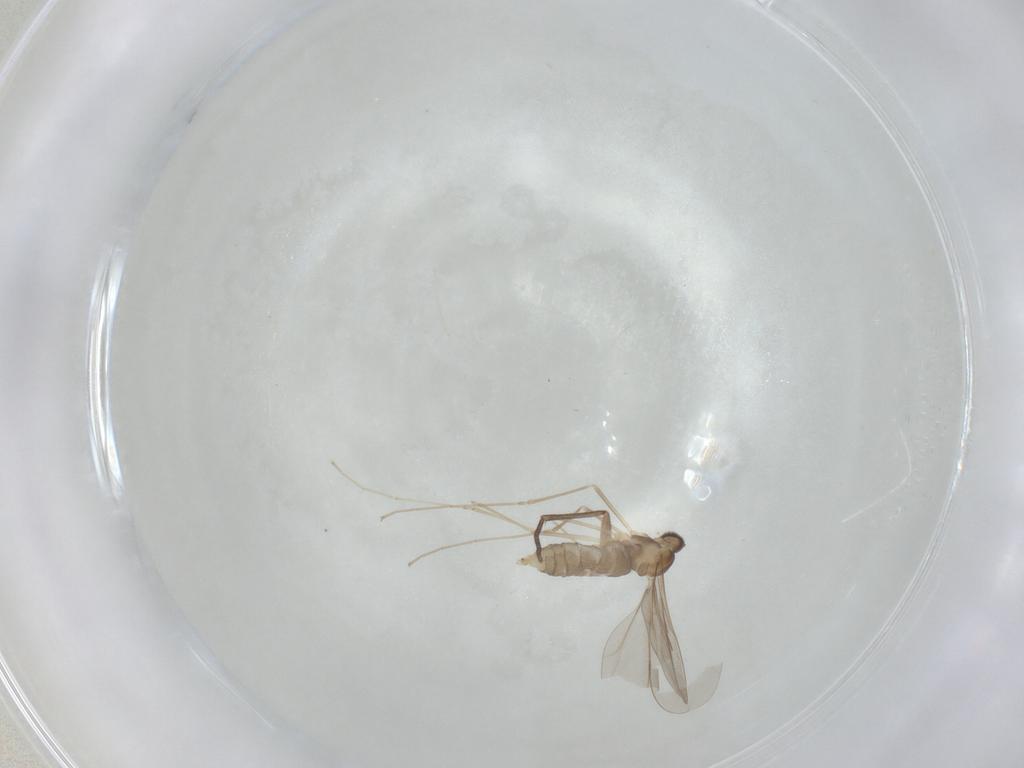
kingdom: Animalia
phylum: Arthropoda
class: Insecta
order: Diptera
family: Cecidomyiidae
